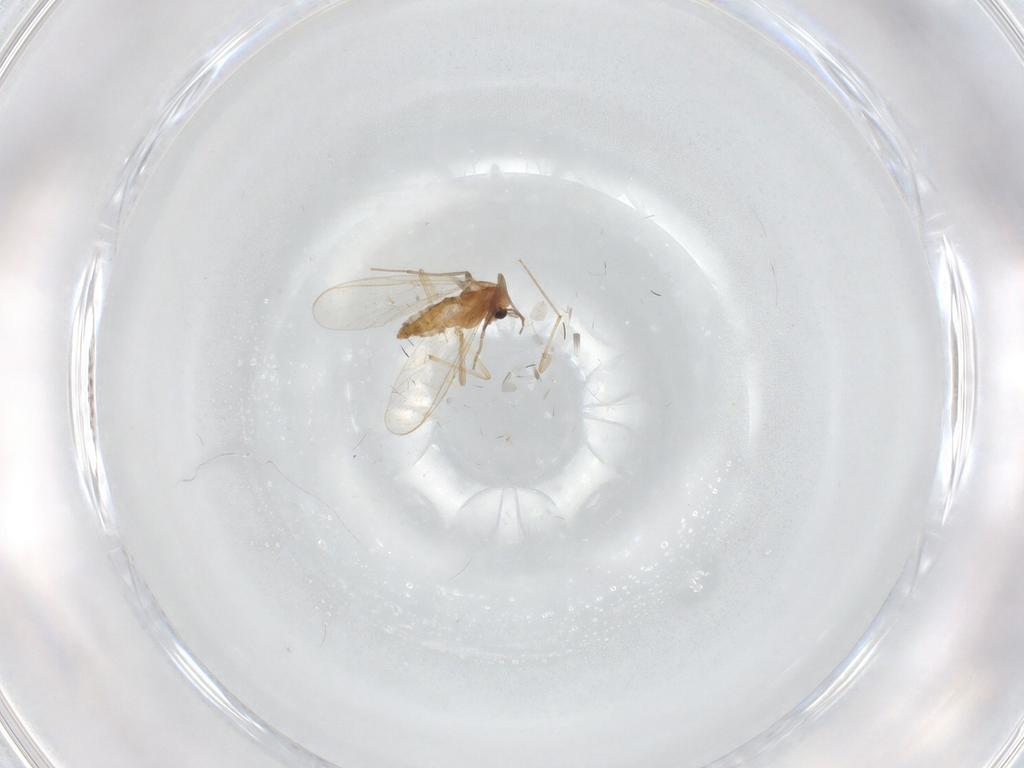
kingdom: Animalia
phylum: Arthropoda
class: Insecta
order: Diptera
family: Chironomidae
